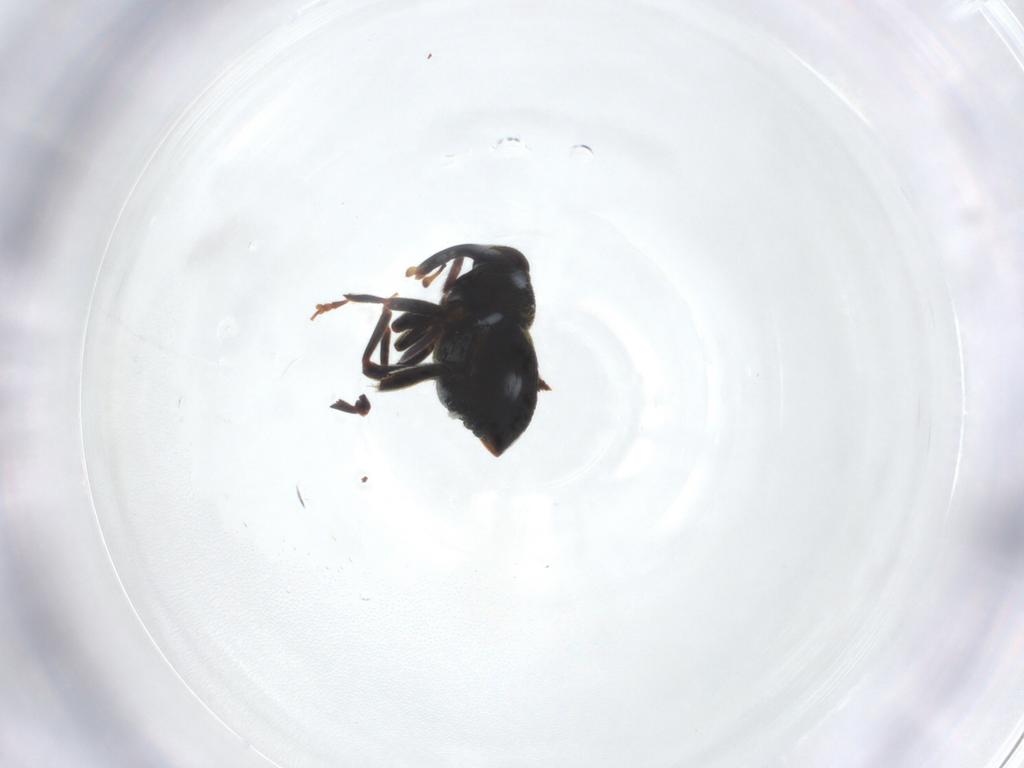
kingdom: Animalia
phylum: Arthropoda
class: Insecta
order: Coleoptera
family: Curculionidae
